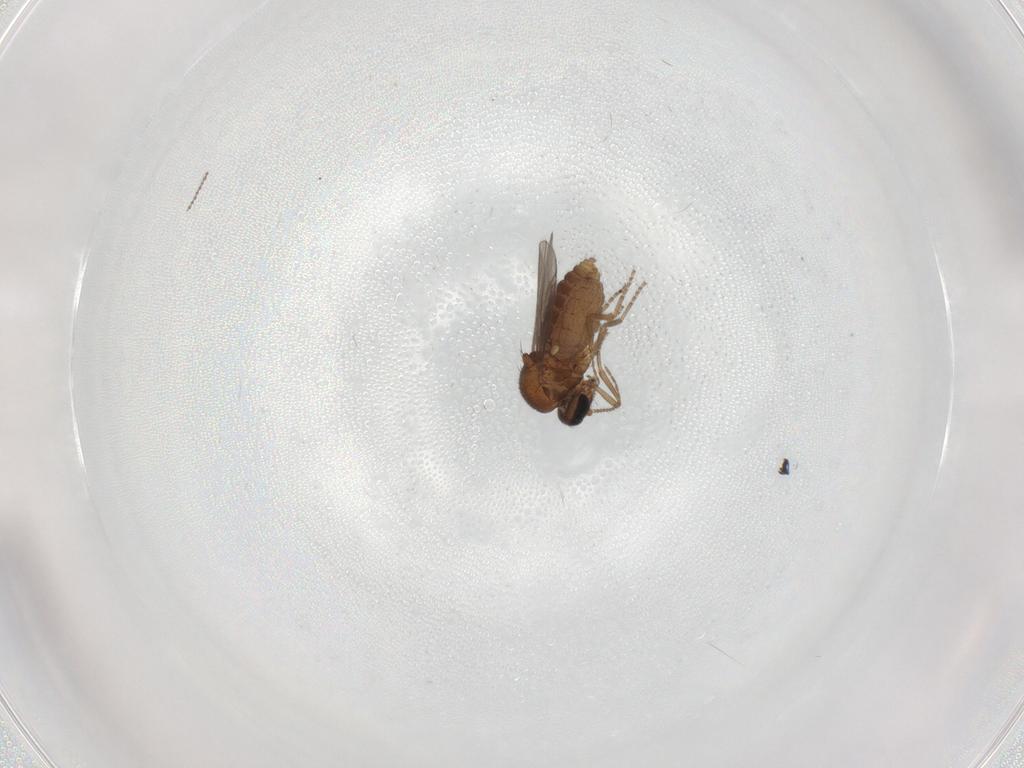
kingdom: Animalia
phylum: Arthropoda
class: Insecta
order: Diptera
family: Ceratopogonidae
